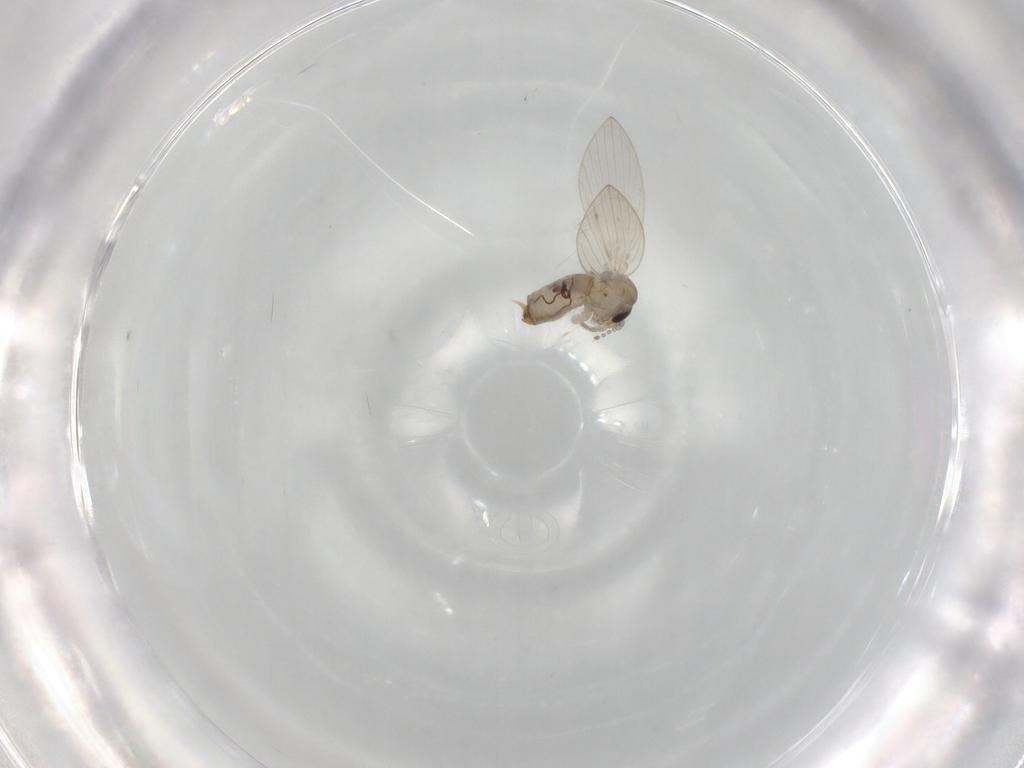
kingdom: Animalia
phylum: Arthropoda
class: Insecta
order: Diptera
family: Psychodidae
